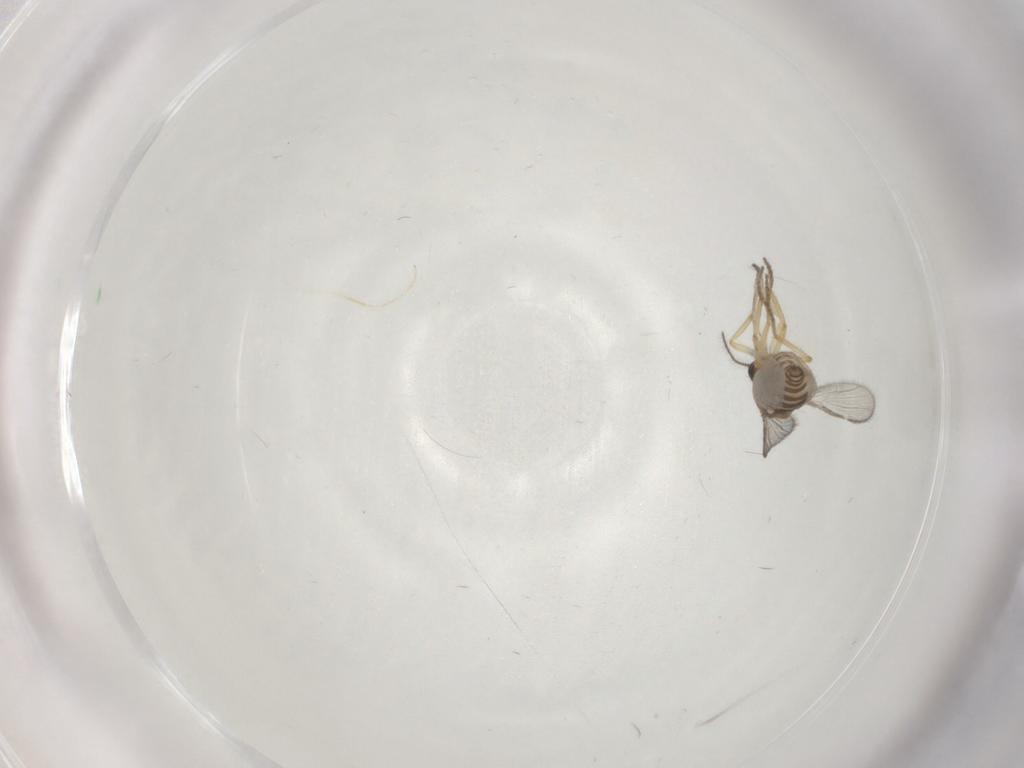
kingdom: Animalia
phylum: Arthropoda
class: Insecta
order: Diptera
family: Ceratopogonidae
